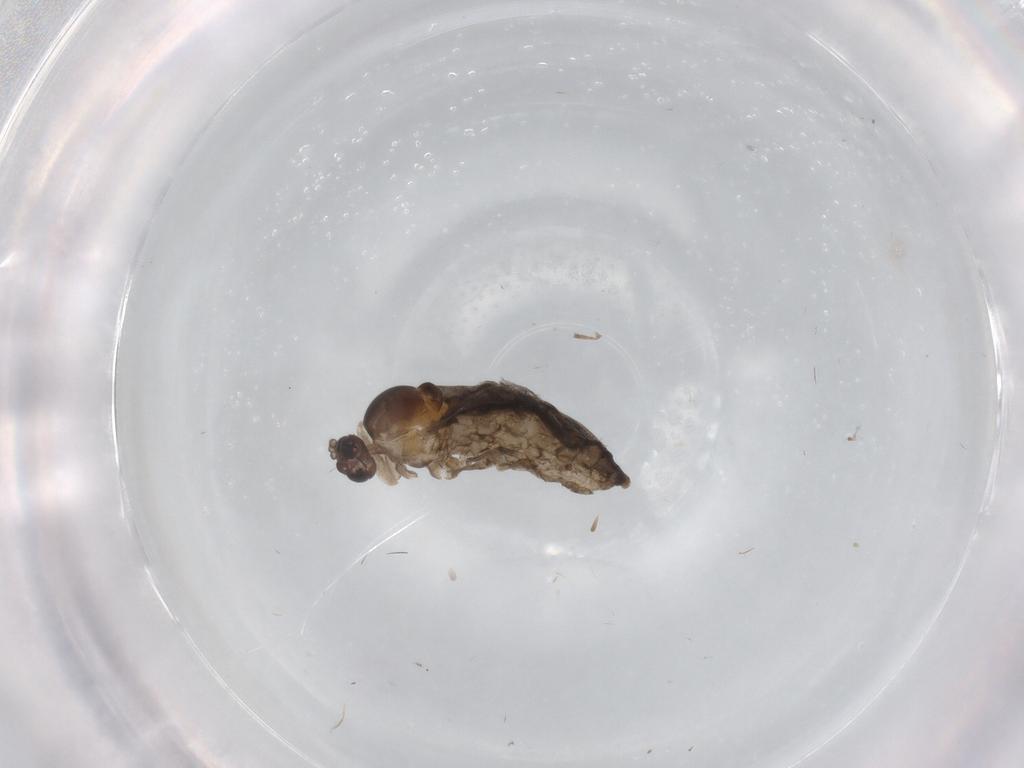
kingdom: Animalia
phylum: Arthropoda
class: Insecta
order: Diptera
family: Cecidomyiidae
